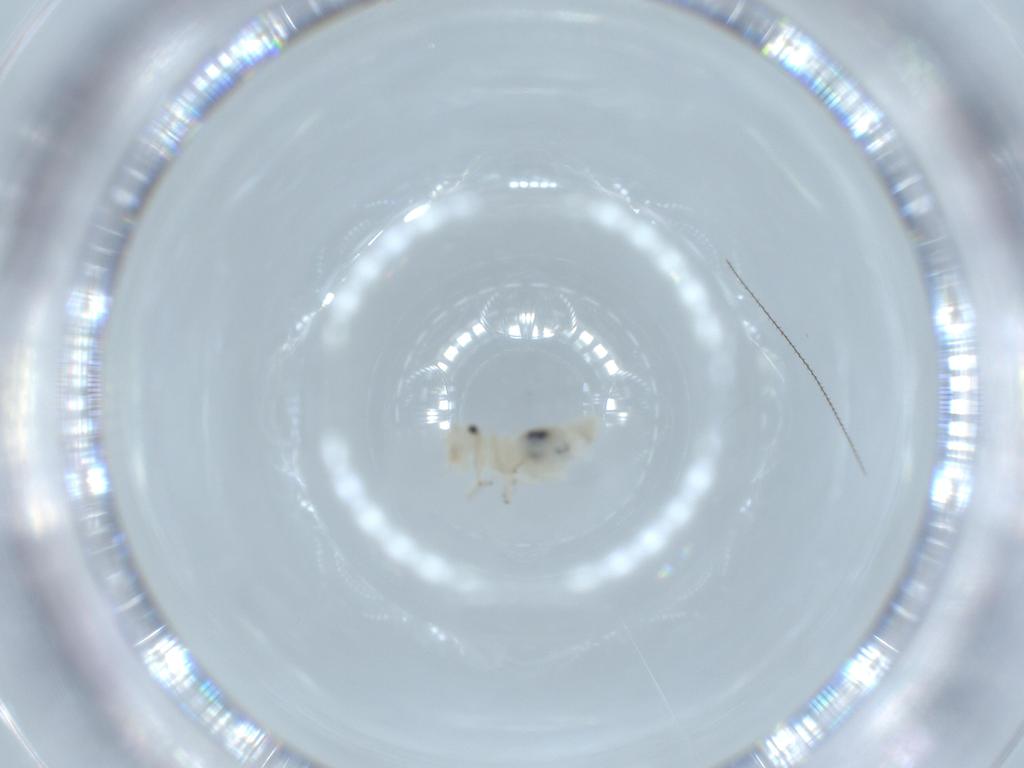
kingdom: Animalia
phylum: Arthropoda
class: Insecta
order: Psocodea
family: Caeciliusidae
